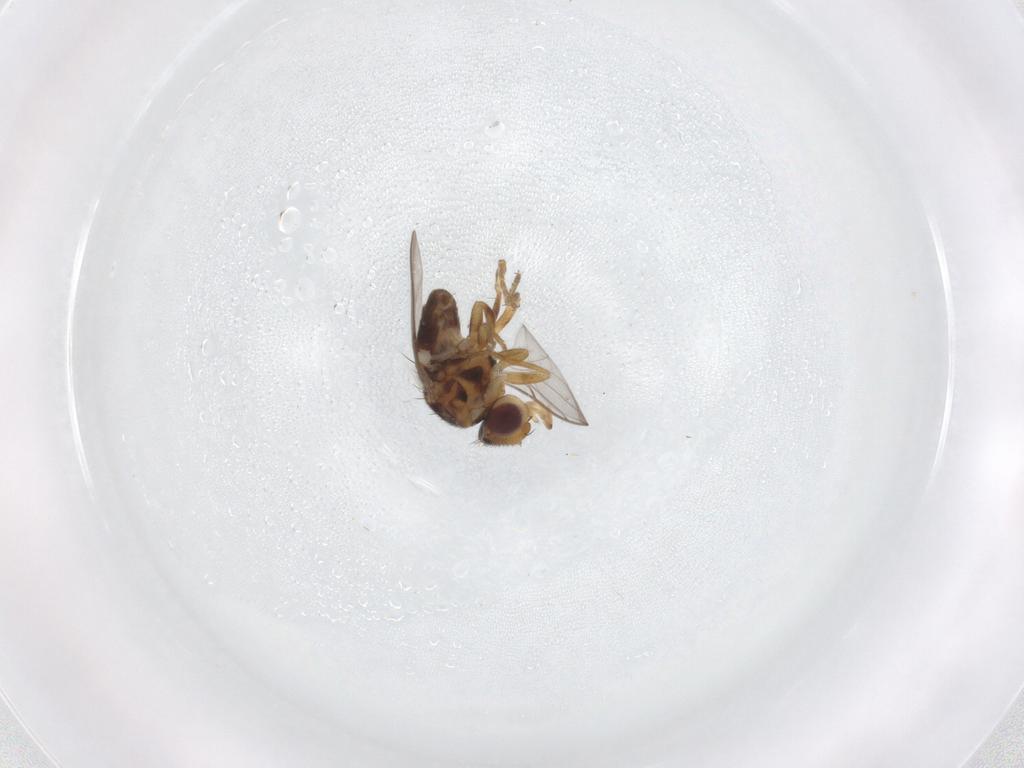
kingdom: Animalia
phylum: Arthropoda
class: Insecta
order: Diptera
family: Chloropidae
